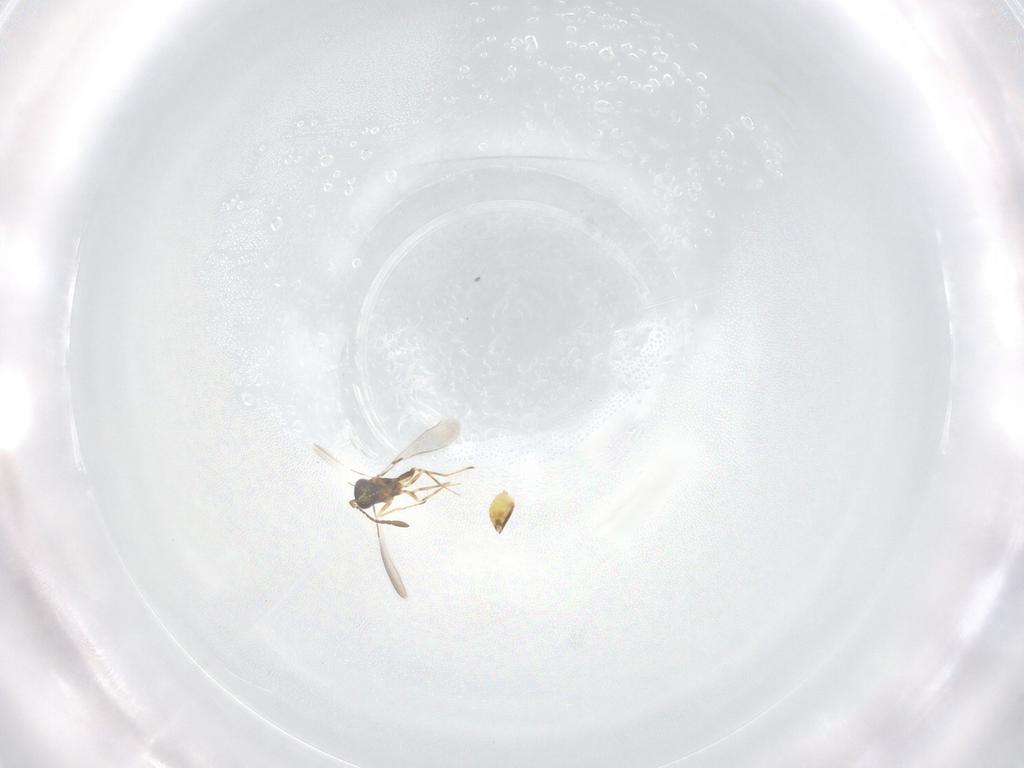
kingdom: Animalia
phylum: Arthropoda
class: Insecta
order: Hymenoptera
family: Mymaridae
